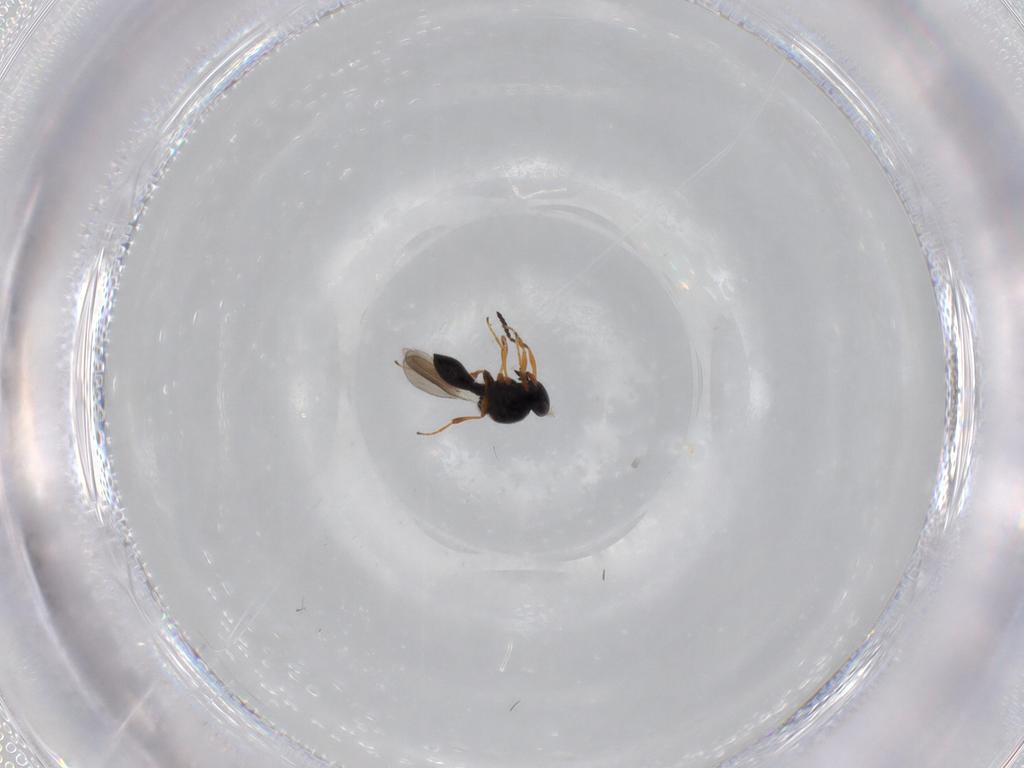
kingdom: Animalia
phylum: Arthropoda
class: Insecta
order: Hymenoptera
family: Platygastridae
